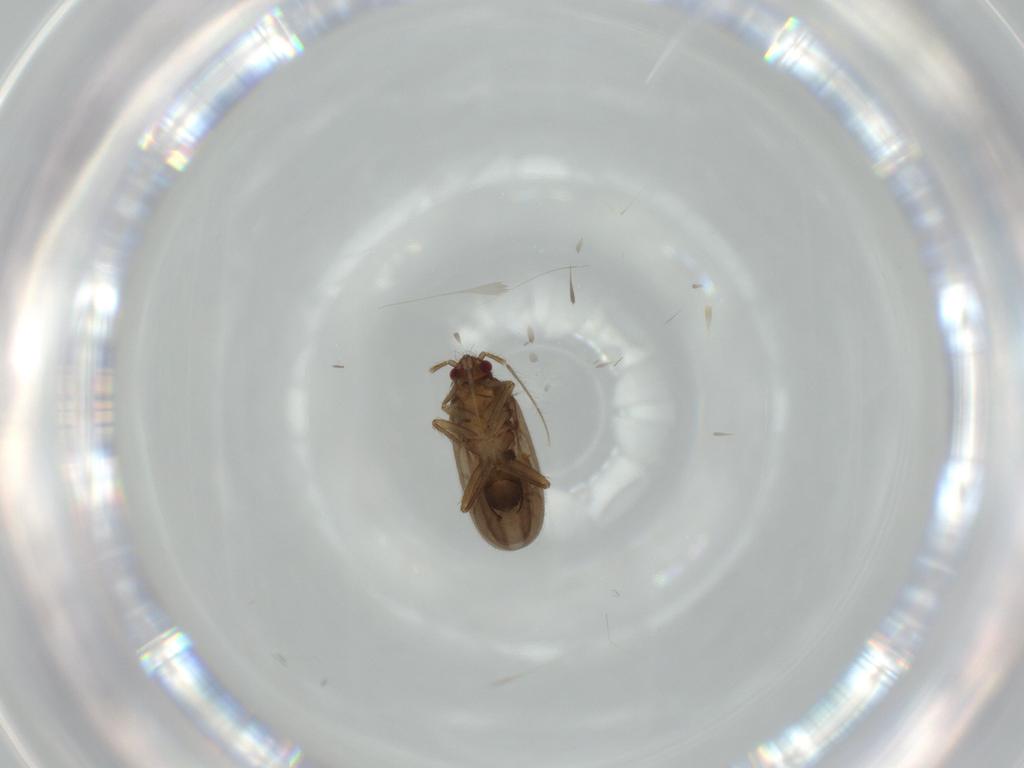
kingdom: Animalia
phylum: Arthropoda
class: Insecta
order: Hemiptera
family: Ceratocombidae
